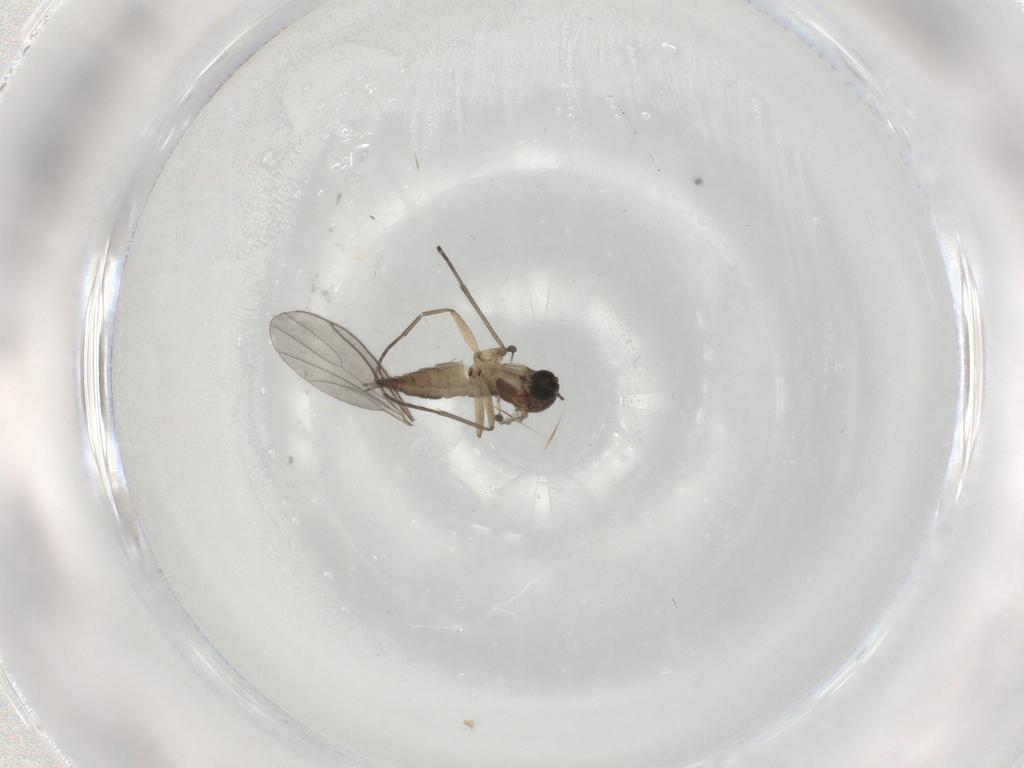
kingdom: Animalia
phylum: Arthropoda
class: Insecta
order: Diptera
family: Sciaridae
